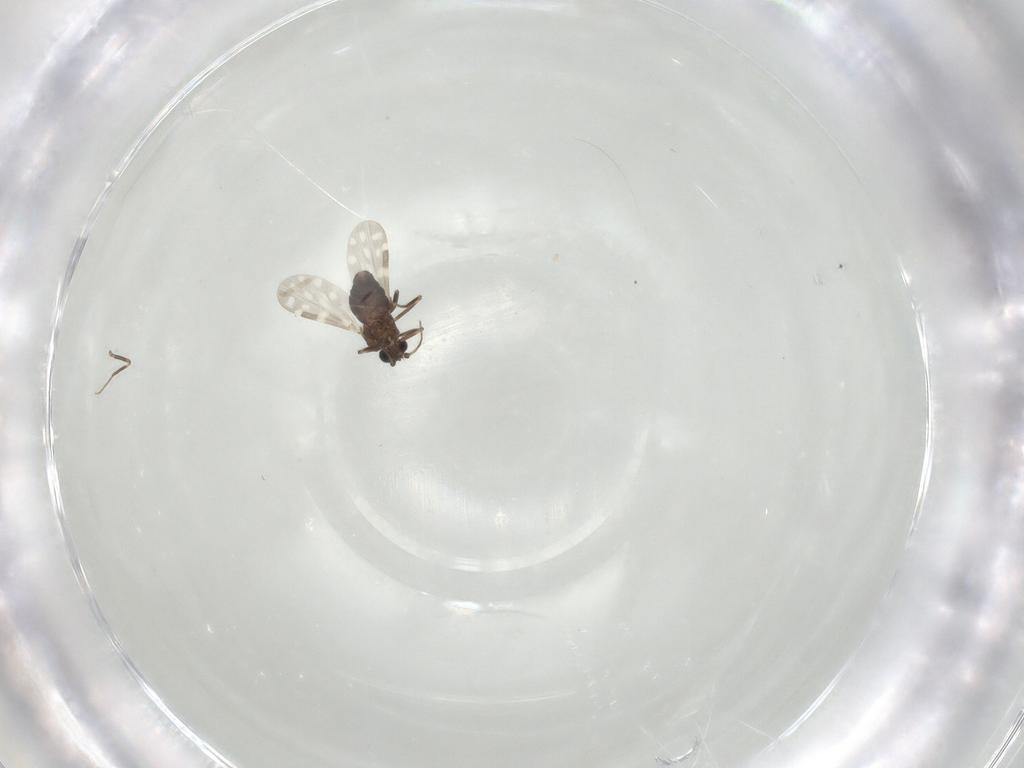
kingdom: Animalia
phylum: Arthropoda
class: Insecta
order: Diptera
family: Cecidomyiidae
